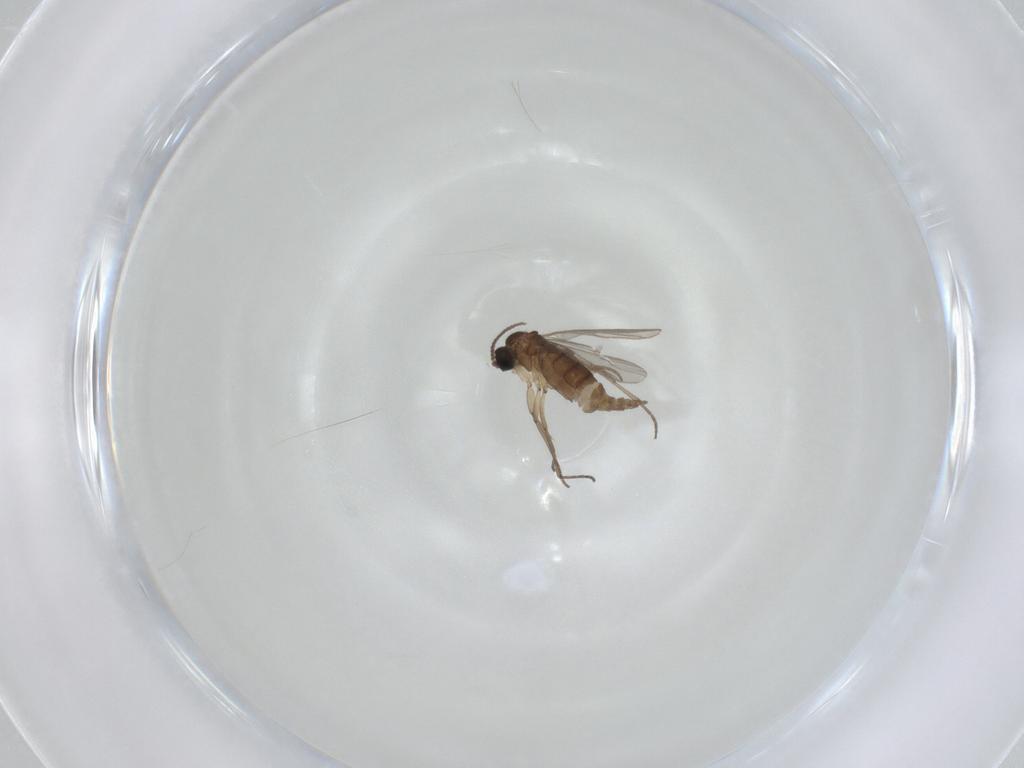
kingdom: Animalia
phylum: Arthropoda
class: Insecta
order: Diptera
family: Sciaridae
